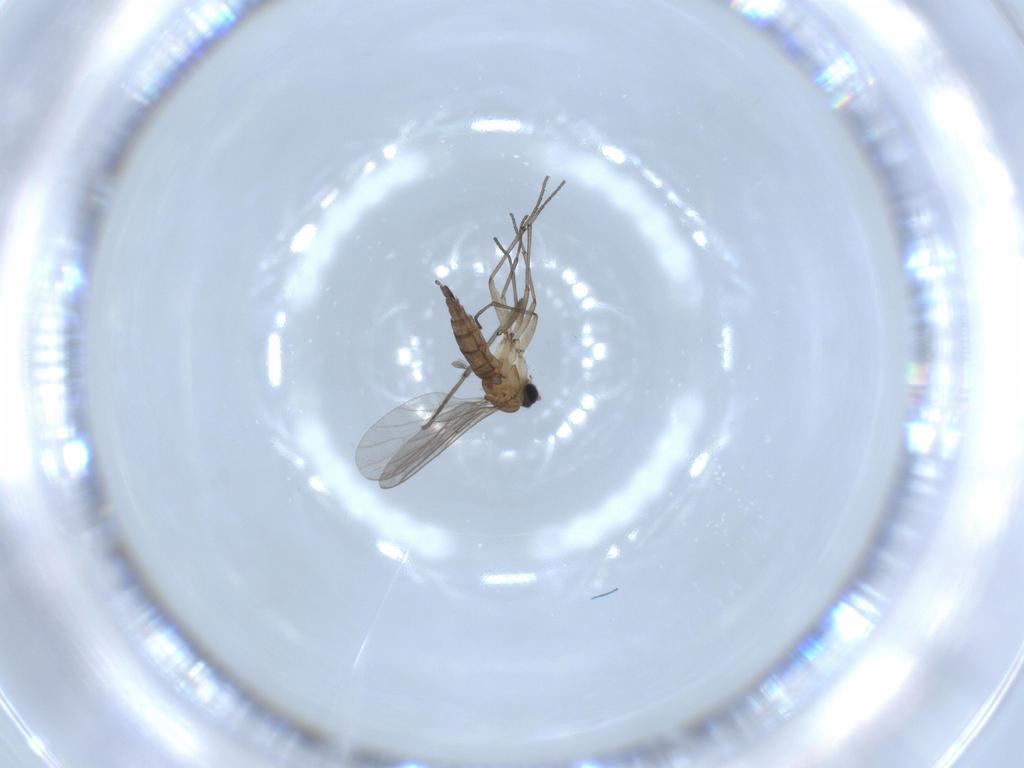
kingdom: Animalia
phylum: Arthropoda
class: Insecta
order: Diptera
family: Sciaridae
